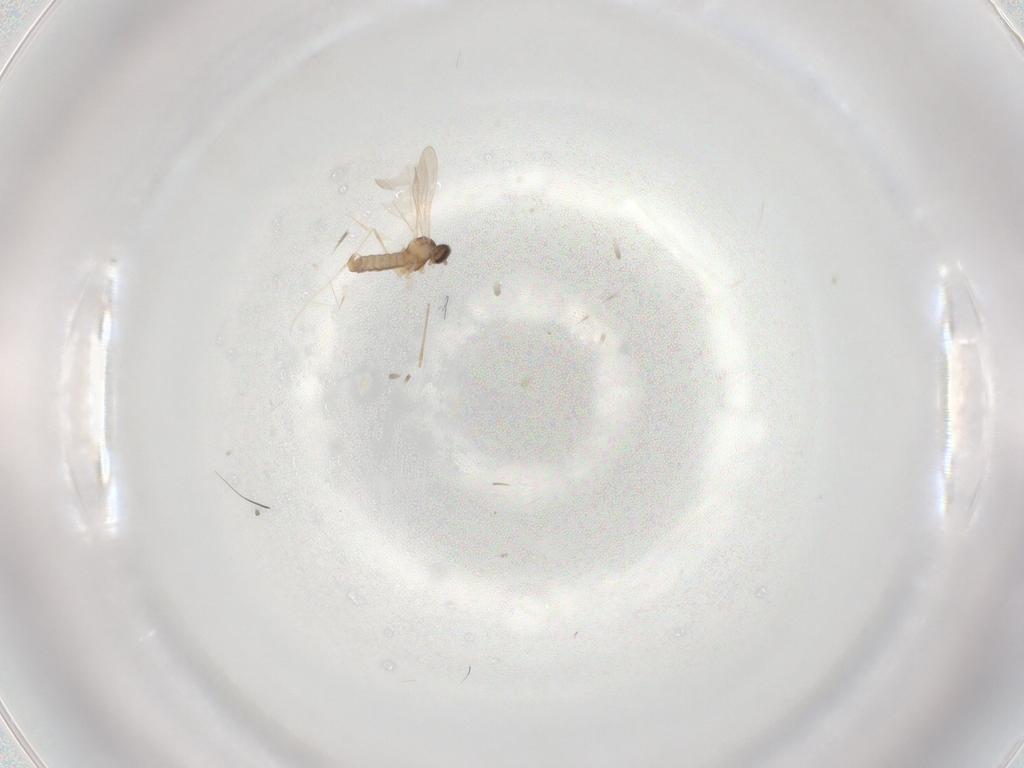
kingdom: Animalia
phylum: Arthropoda
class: Insecta
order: Diptera
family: Cecidomyiidae
